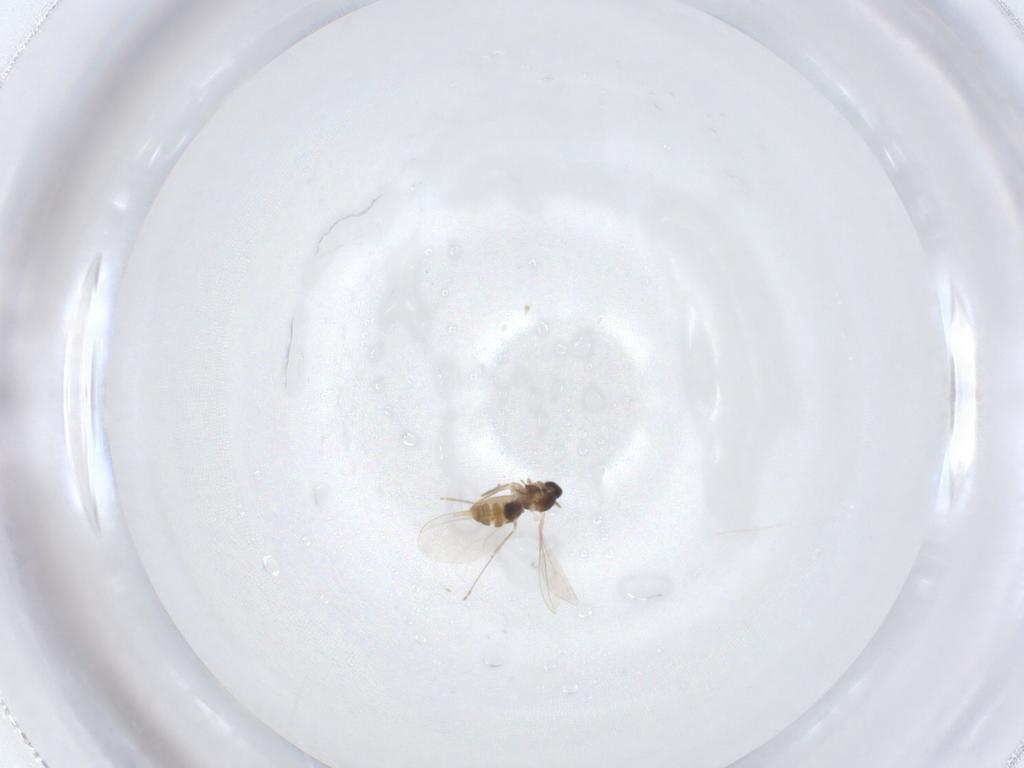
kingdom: Animalia
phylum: Arthropoda
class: Insecta
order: Diptera
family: Cecidomyiidae
